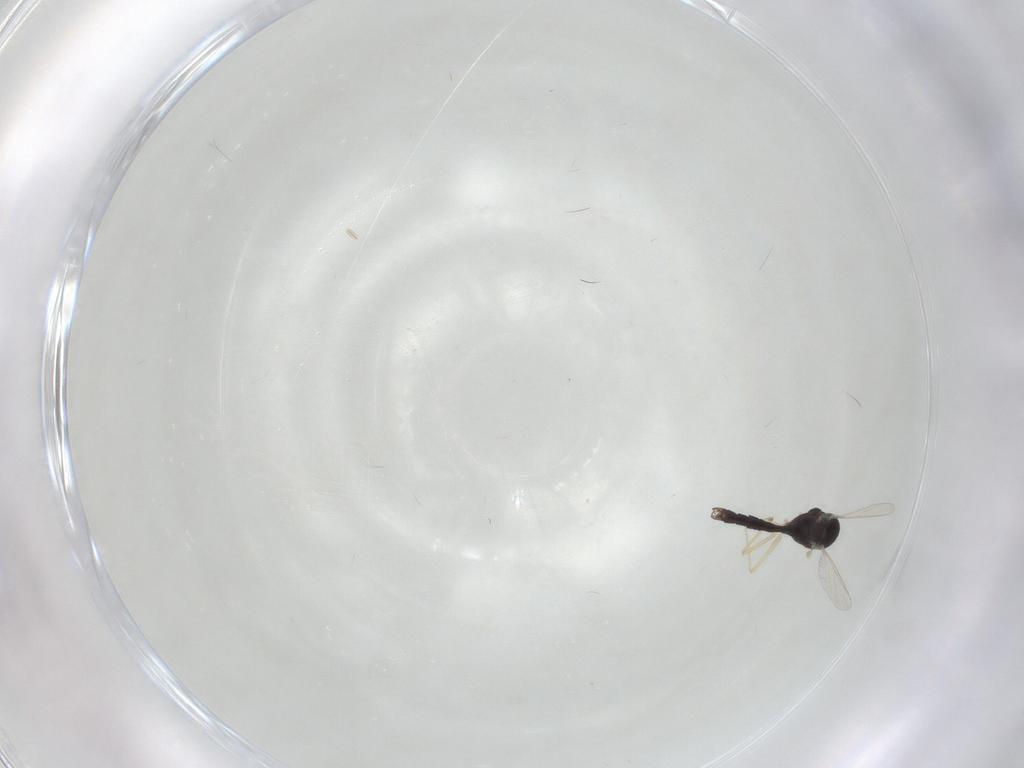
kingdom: Animalia
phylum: Arthropoda
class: Insecta
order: Diptera
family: Chironomidae
